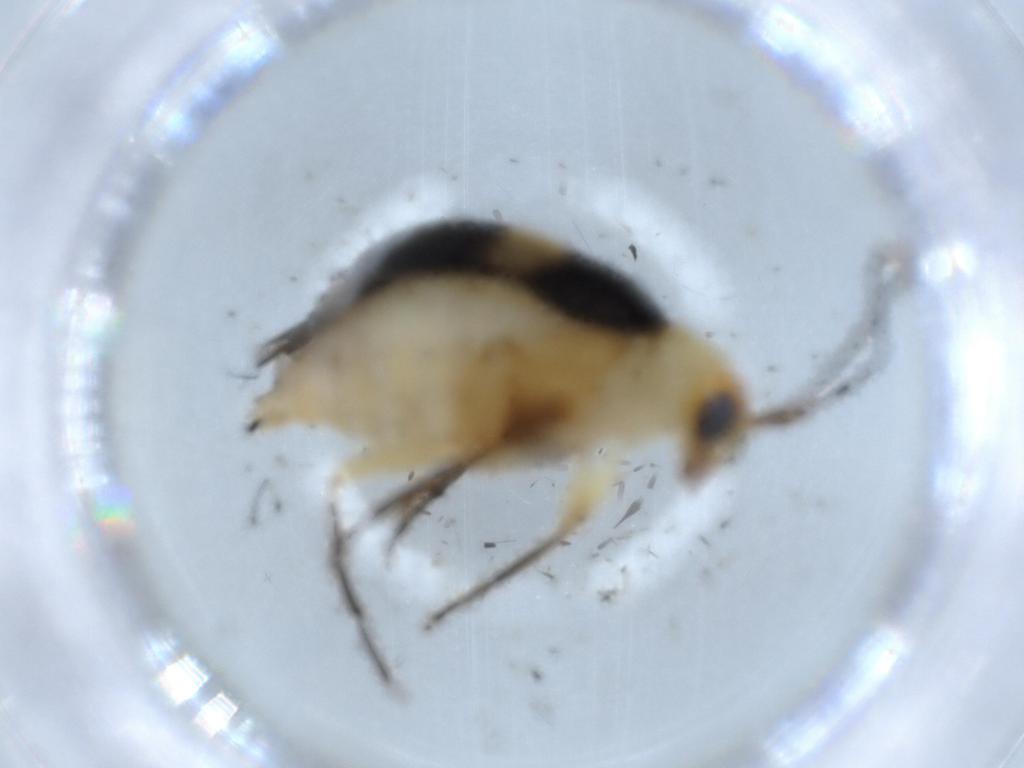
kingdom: Animalia
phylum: Arthropoda
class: Insecta
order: Coleoptera
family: Chrysomelidae
